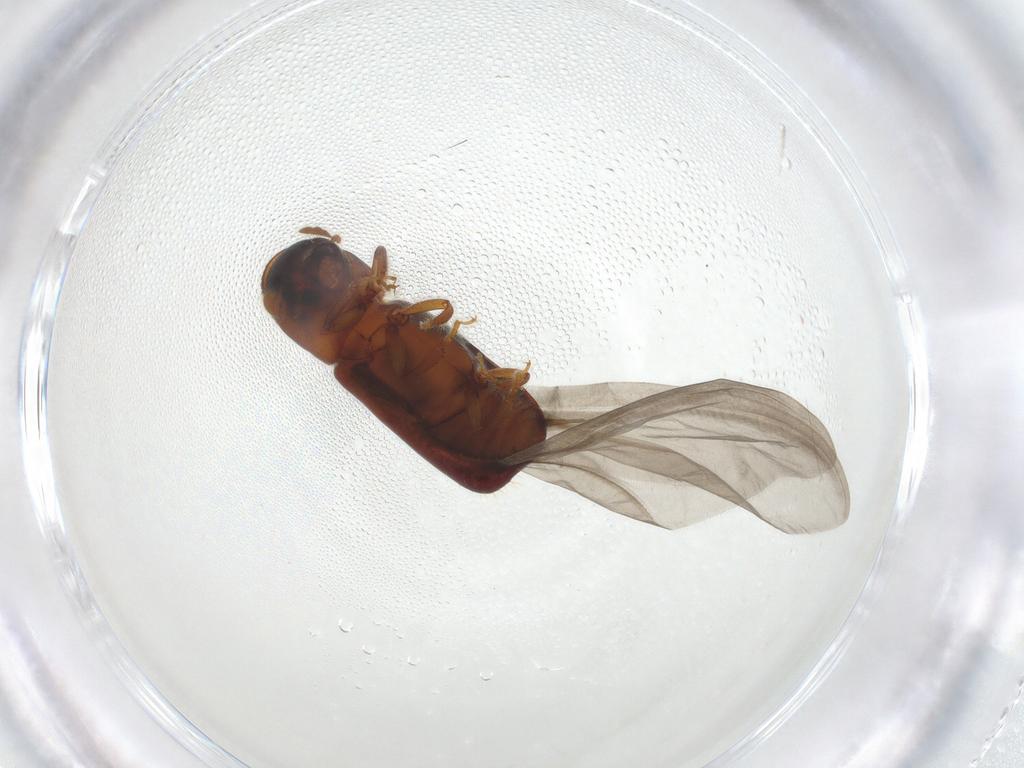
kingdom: Animalia
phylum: Arthropoda
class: Insecta
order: Coleoptera
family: Curculionidae
